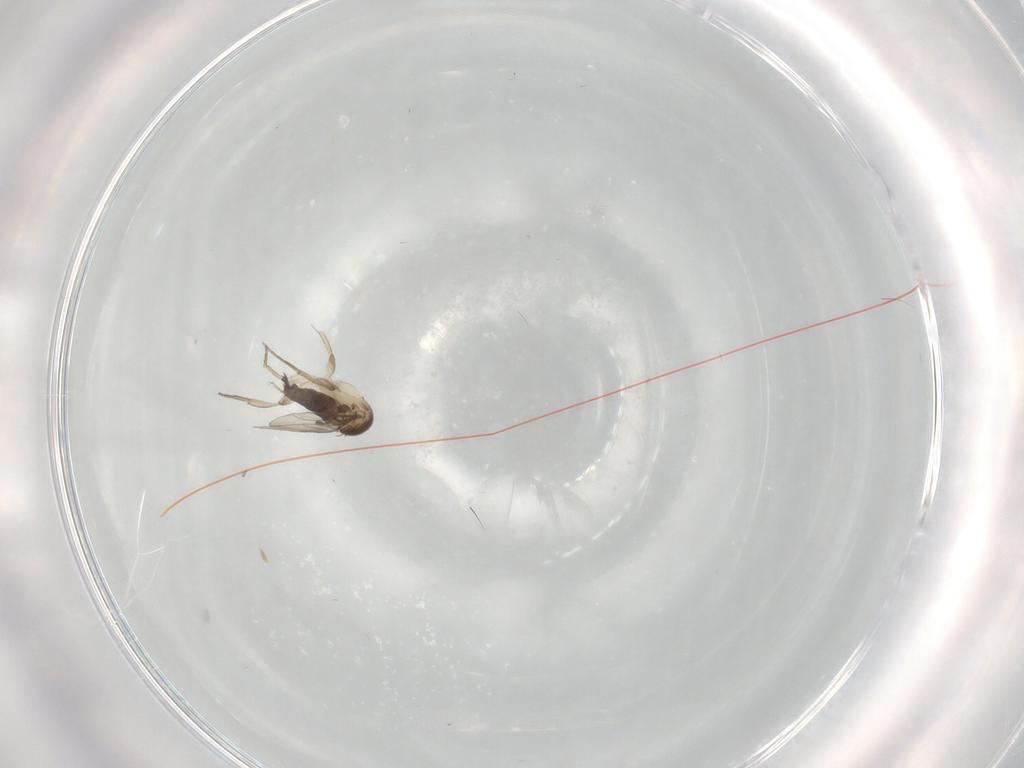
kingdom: Animalia
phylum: Arthropoda
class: Insecta
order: Diptera
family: Phoridae
